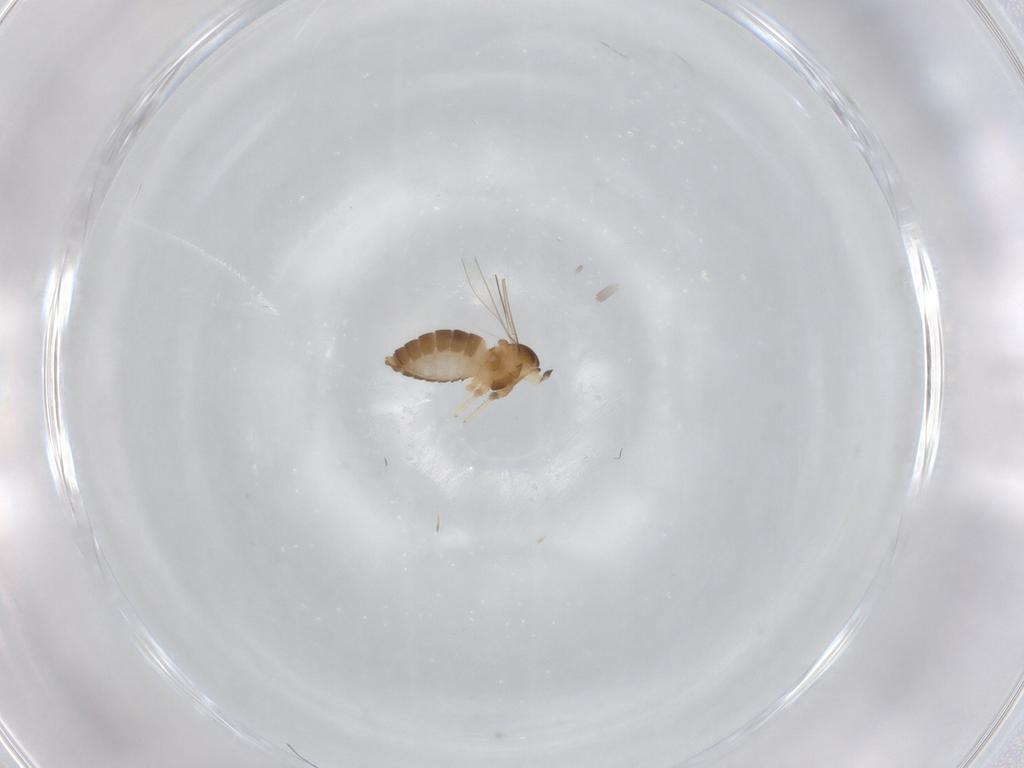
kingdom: Animalia
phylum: Arthropoda
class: Insecta
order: Diptera
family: Cecidomyiidae
